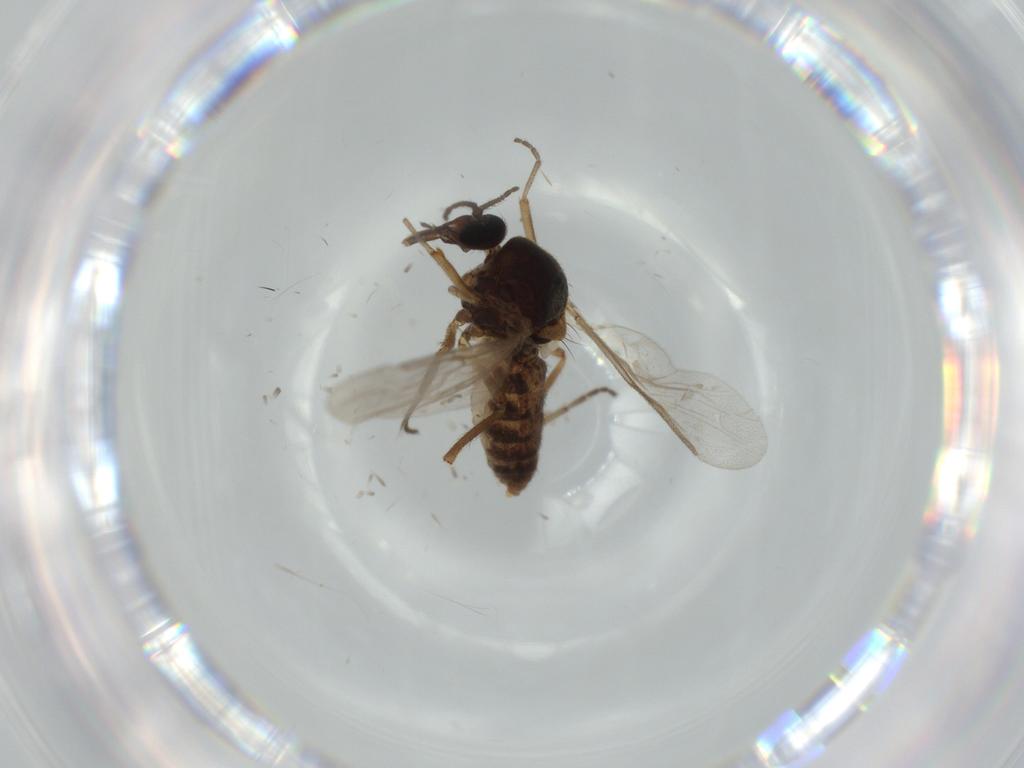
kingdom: Animalia
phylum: Arthropoda
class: Insecta
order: Diptera
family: Ceratopogonidae
